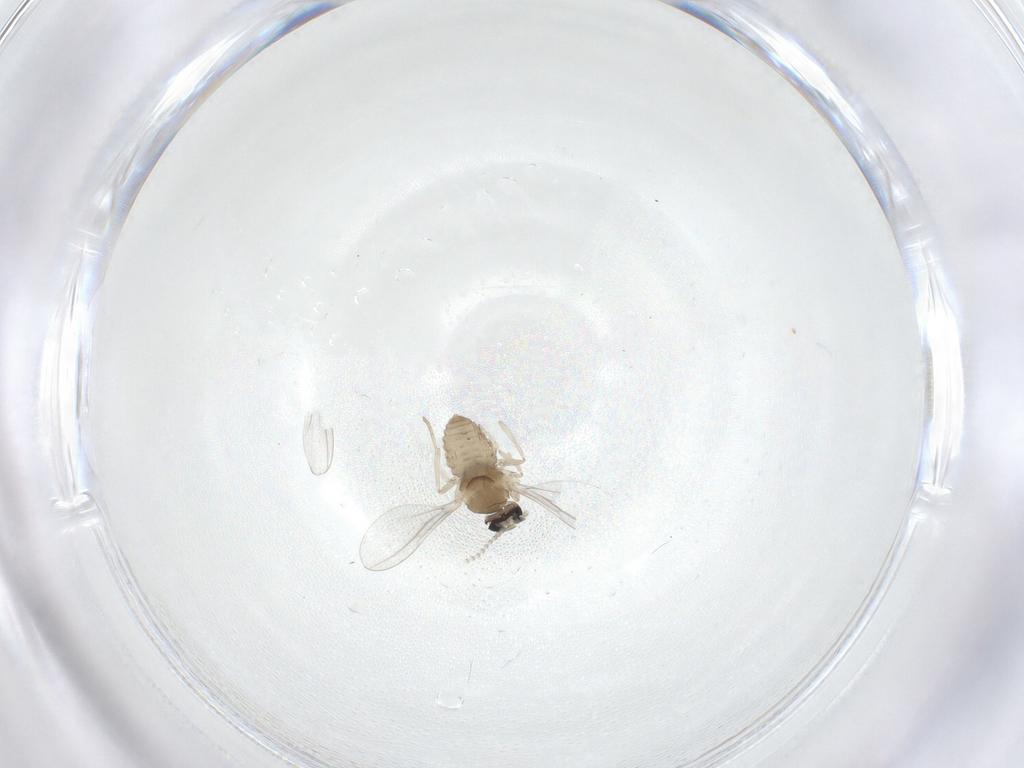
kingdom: Animalia
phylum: Arthropoda
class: Insecta
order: Diptera
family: Cecidomyiidae
